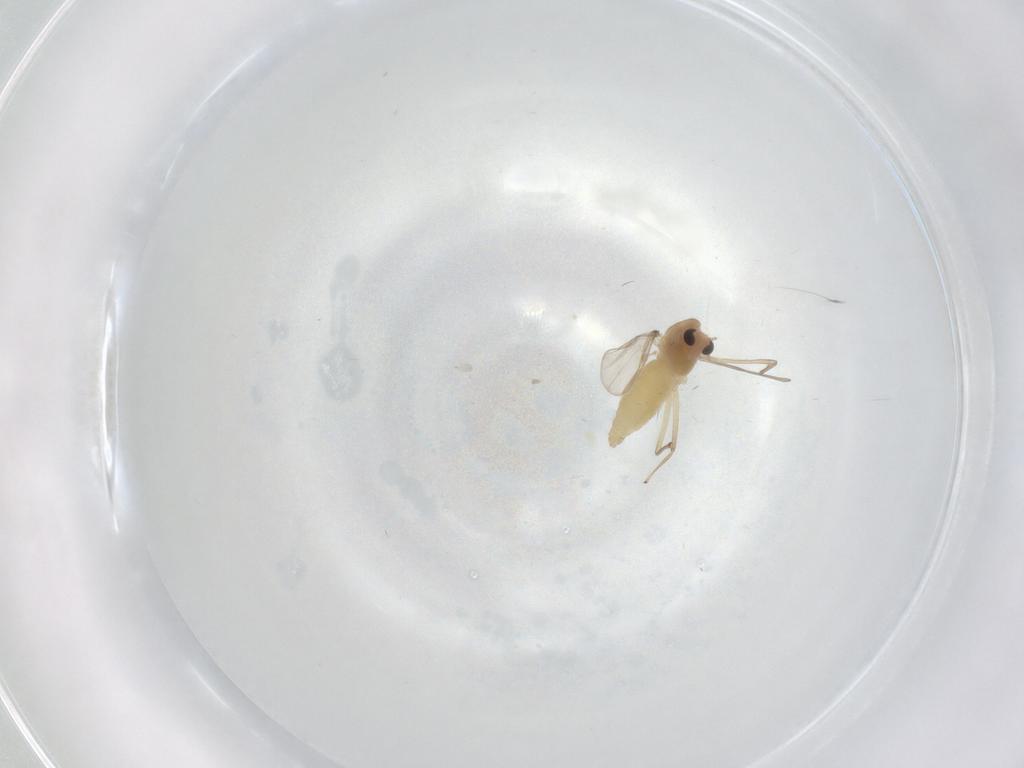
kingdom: Animalia
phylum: Arthropoda
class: Insecta
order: Diptera
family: Chironomidae
